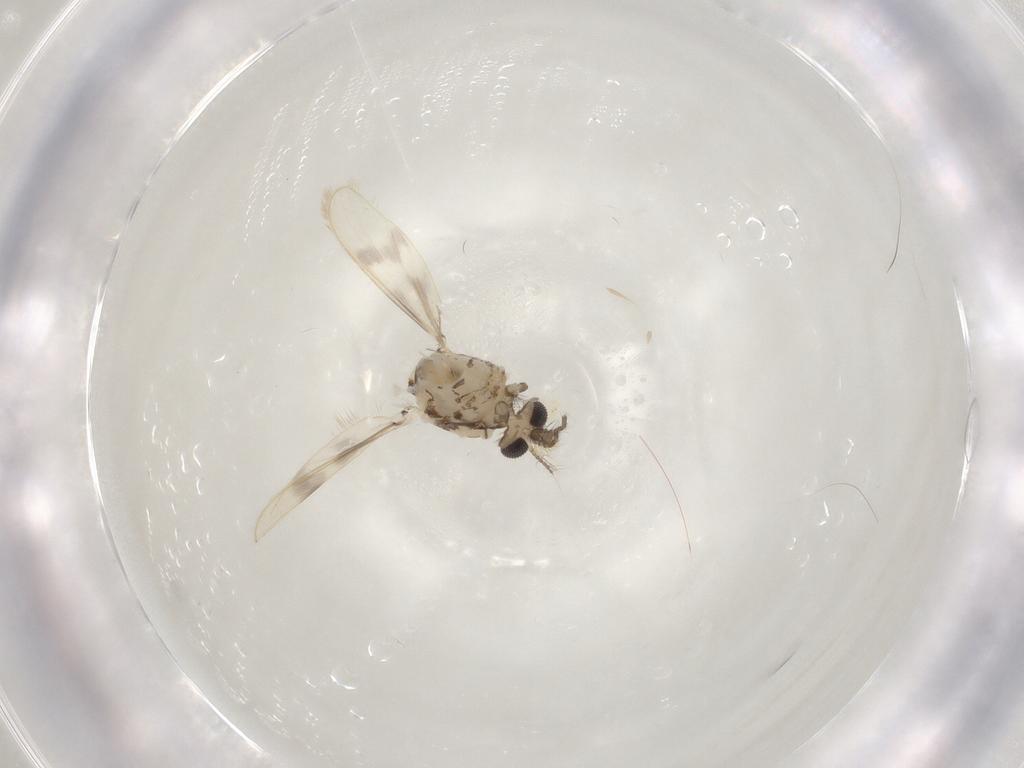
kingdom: Animalia
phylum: Arthropoda
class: Insecta
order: Diptera
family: Chaoboridae
